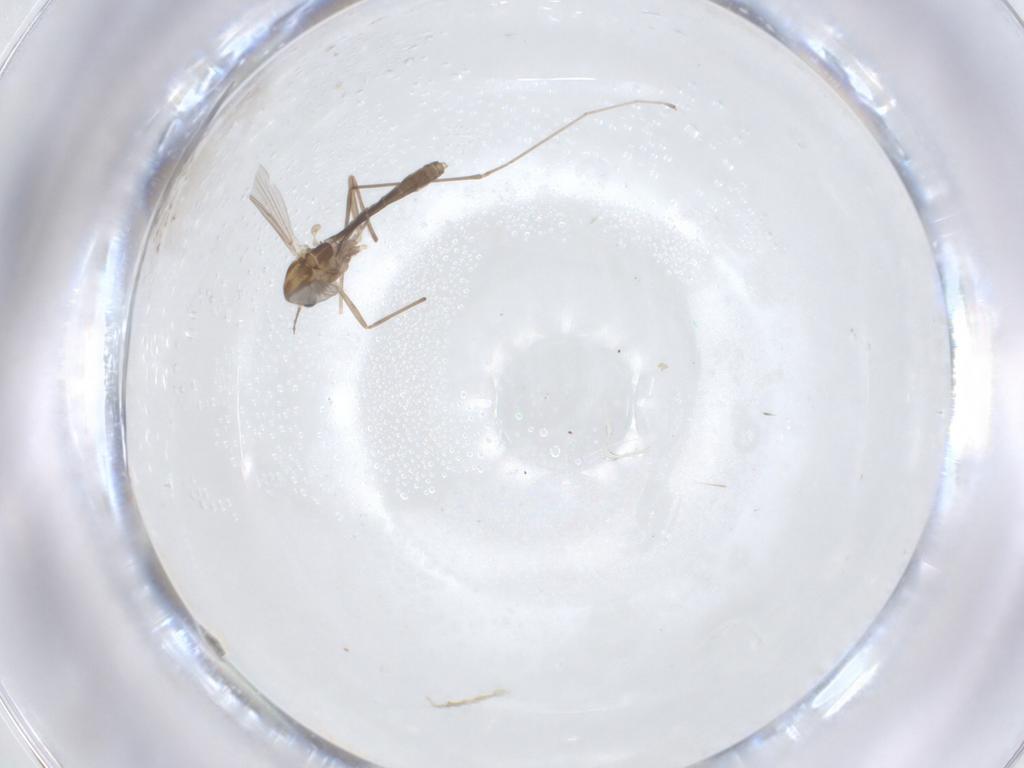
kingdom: Animalia
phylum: Arthropoda
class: Insecta
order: Diptera
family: Chironomidae
